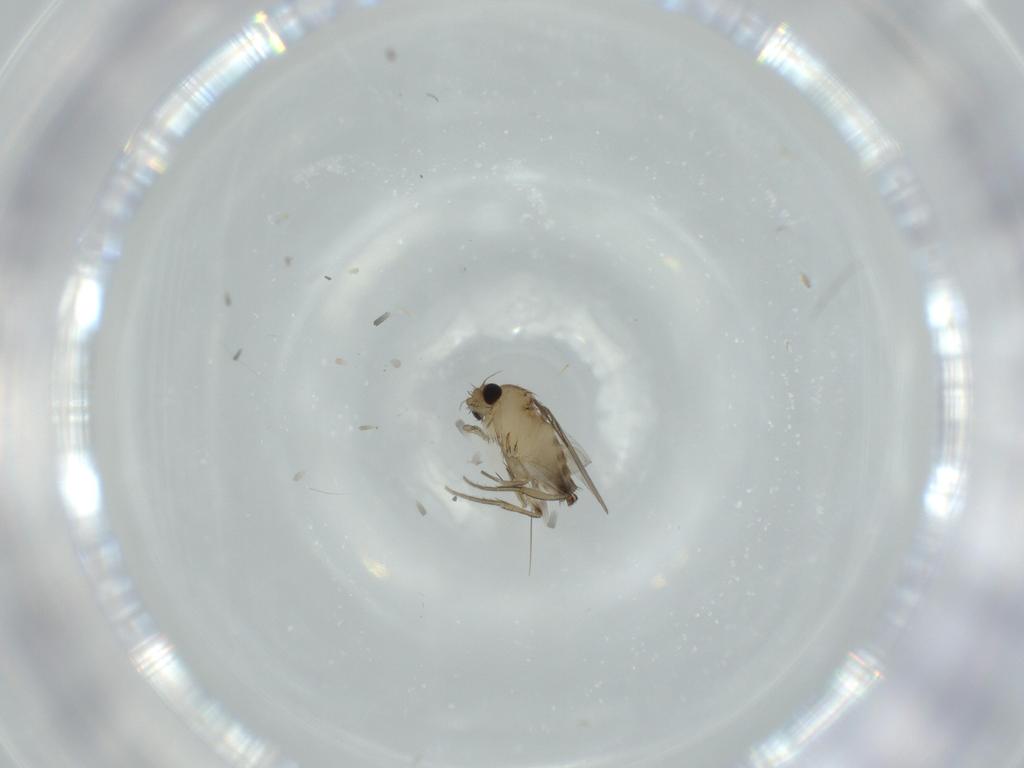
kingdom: Animalia
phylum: Arthropoda
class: Insecta
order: Diptera
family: Phoridae
